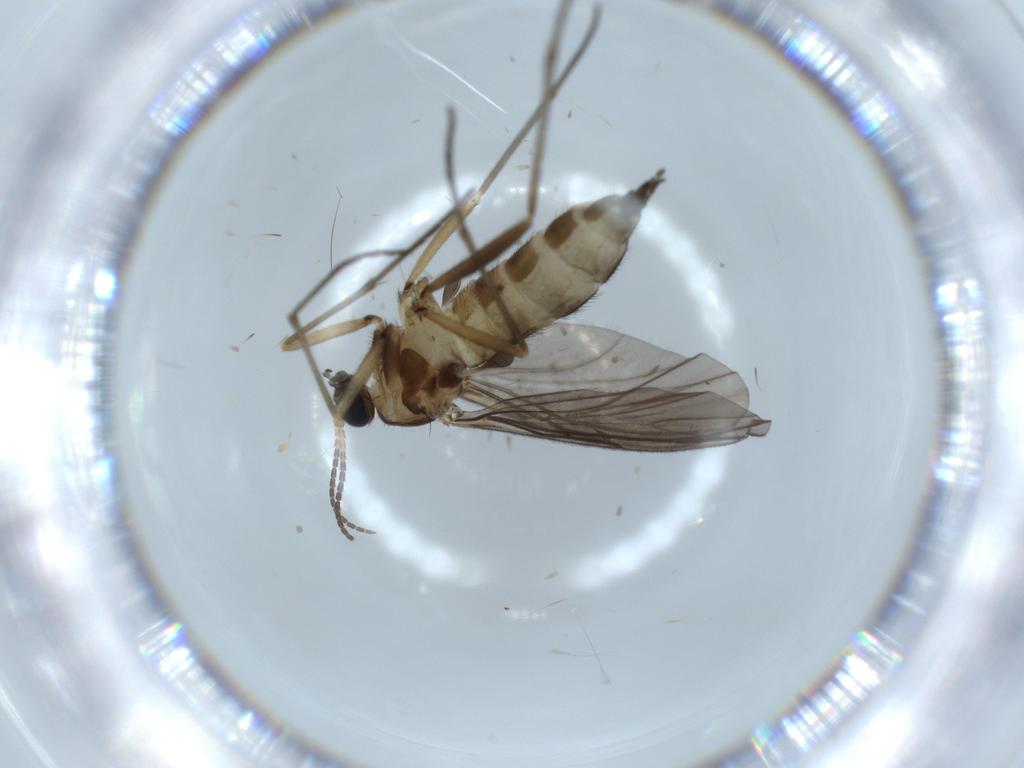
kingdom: Animalia
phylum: Arthropoda
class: Insecta
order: Diptera
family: Sciaridae
